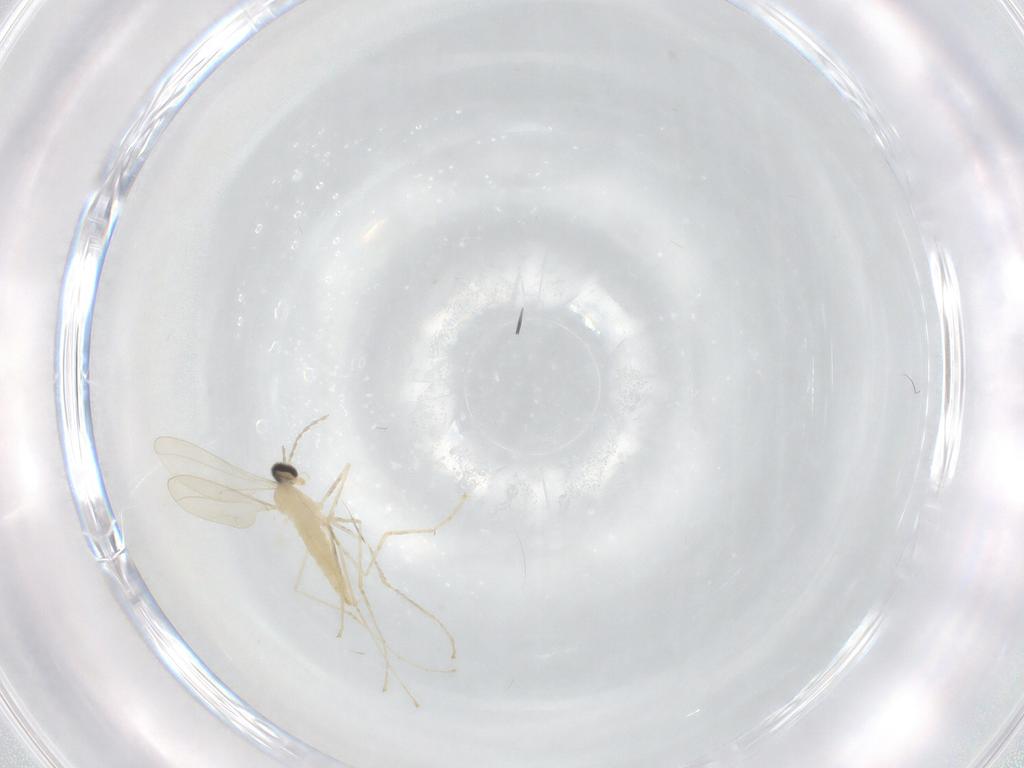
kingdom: Animalia
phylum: Arthropoda
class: Insecta
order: Diptera
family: Cecidomyiidae
